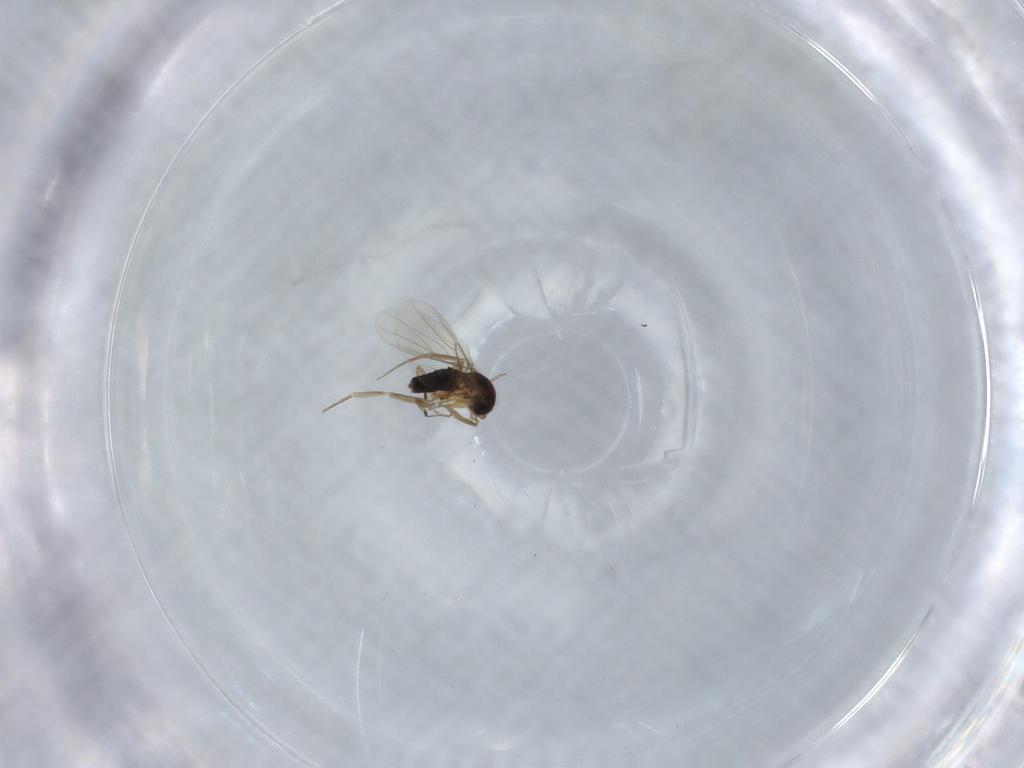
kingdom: Animalia
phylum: Arthropoda
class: Insecta
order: Diptera
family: Phoridae
